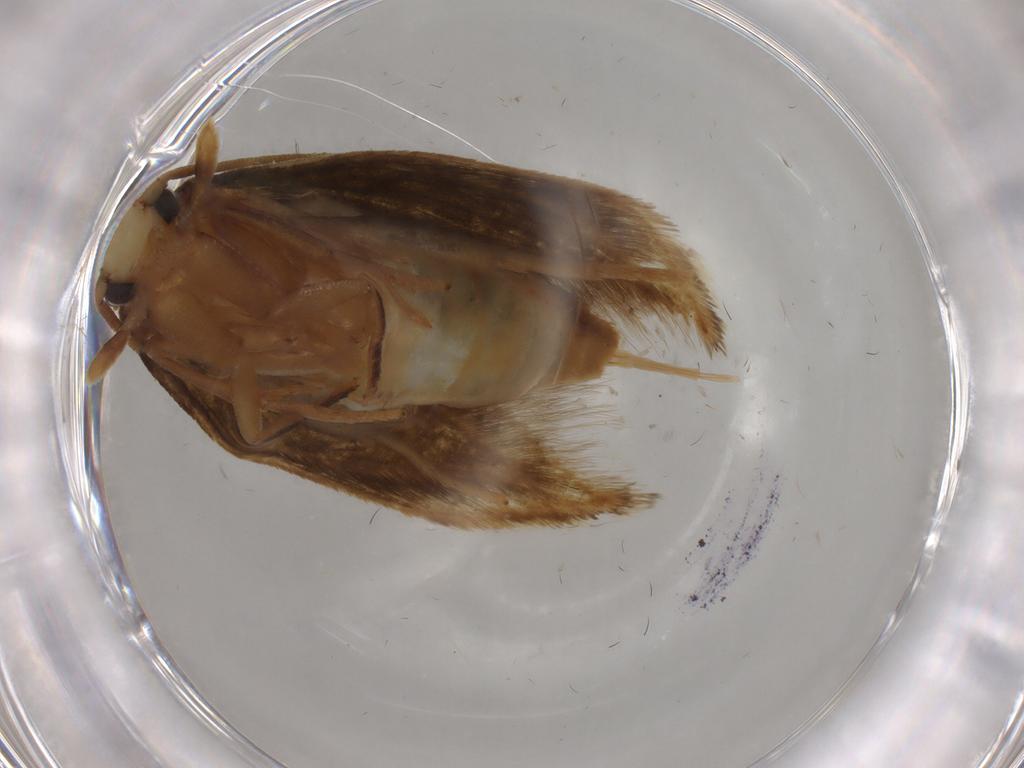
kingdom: Animalia
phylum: Arthropoda
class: Insecta
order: Lepidoptera
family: Tineidae
